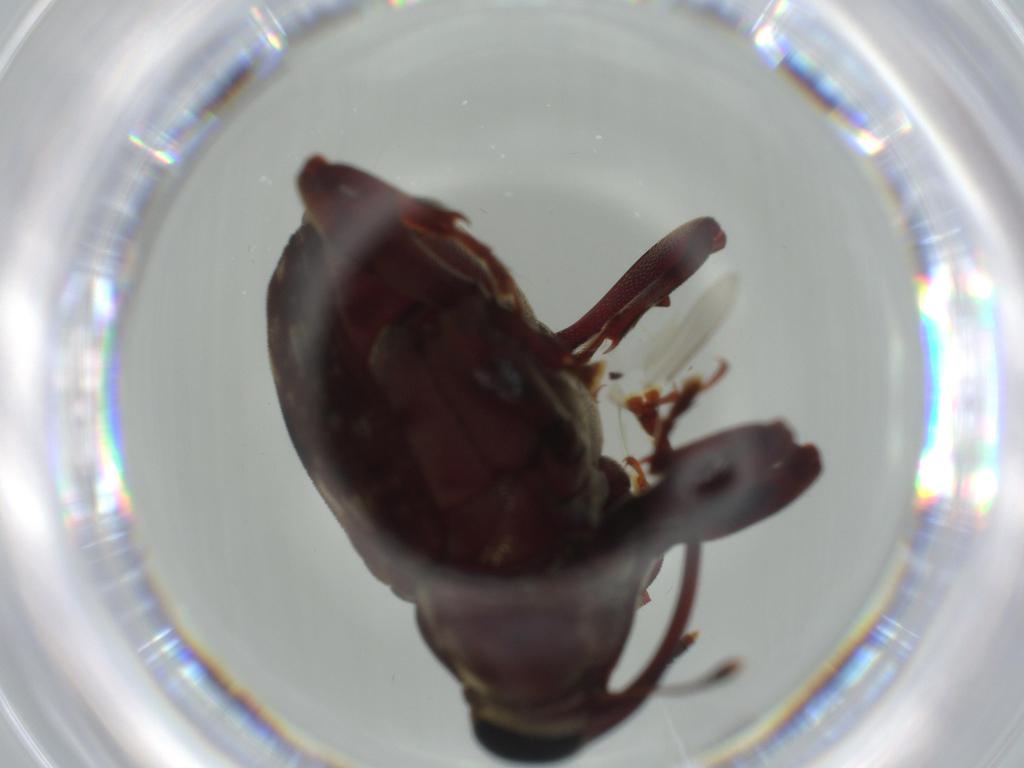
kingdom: Animalia
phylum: Arthropoda
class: Insecta
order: Coleoptera
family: Curculionidae
